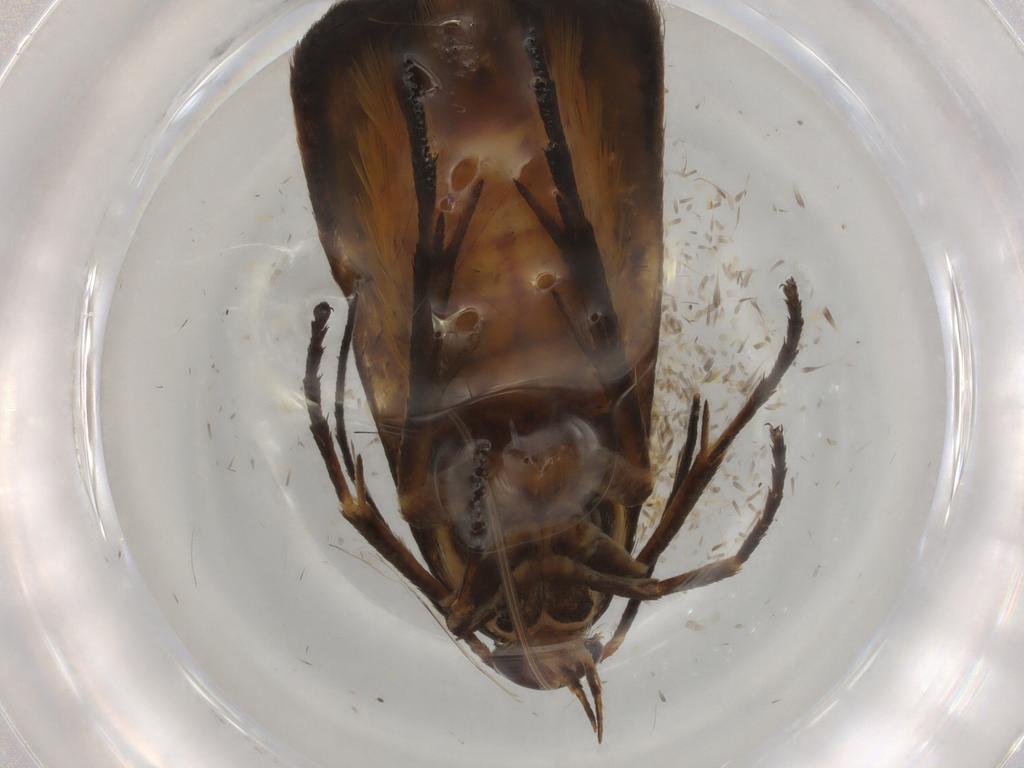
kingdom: Animalia
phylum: Arthropoda
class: Insecta
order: Lepidoptera
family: Scythrididae
